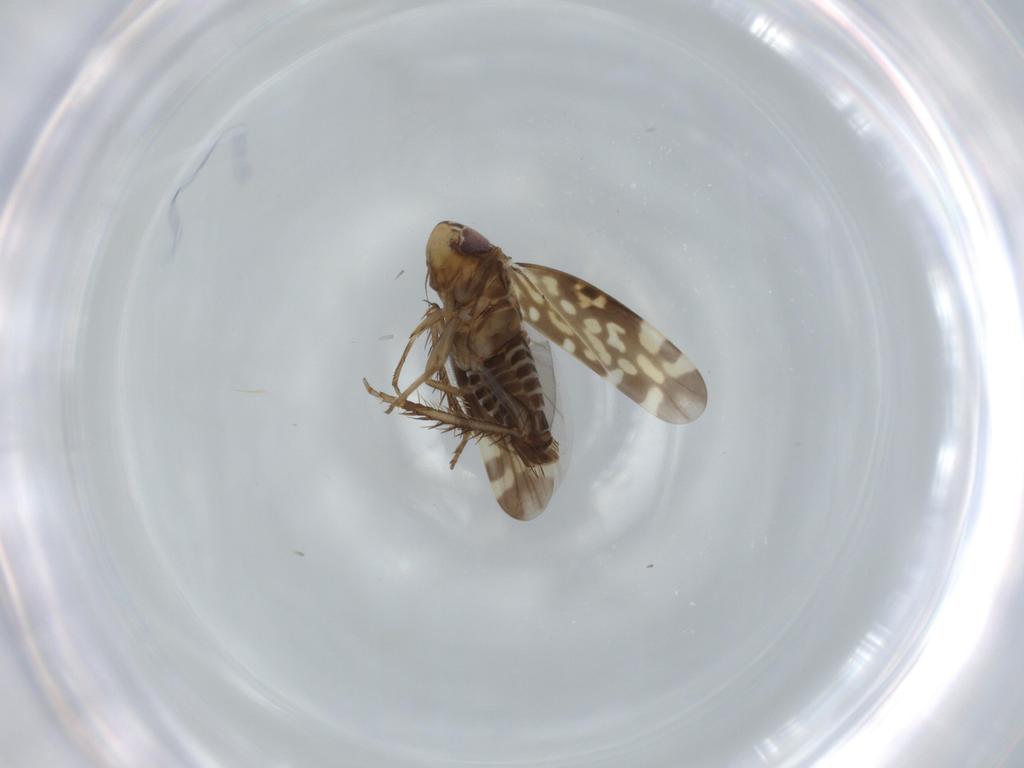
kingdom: Animalia
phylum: Arthropoda
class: Insecta
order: Hemiptera
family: Cicadellidae
